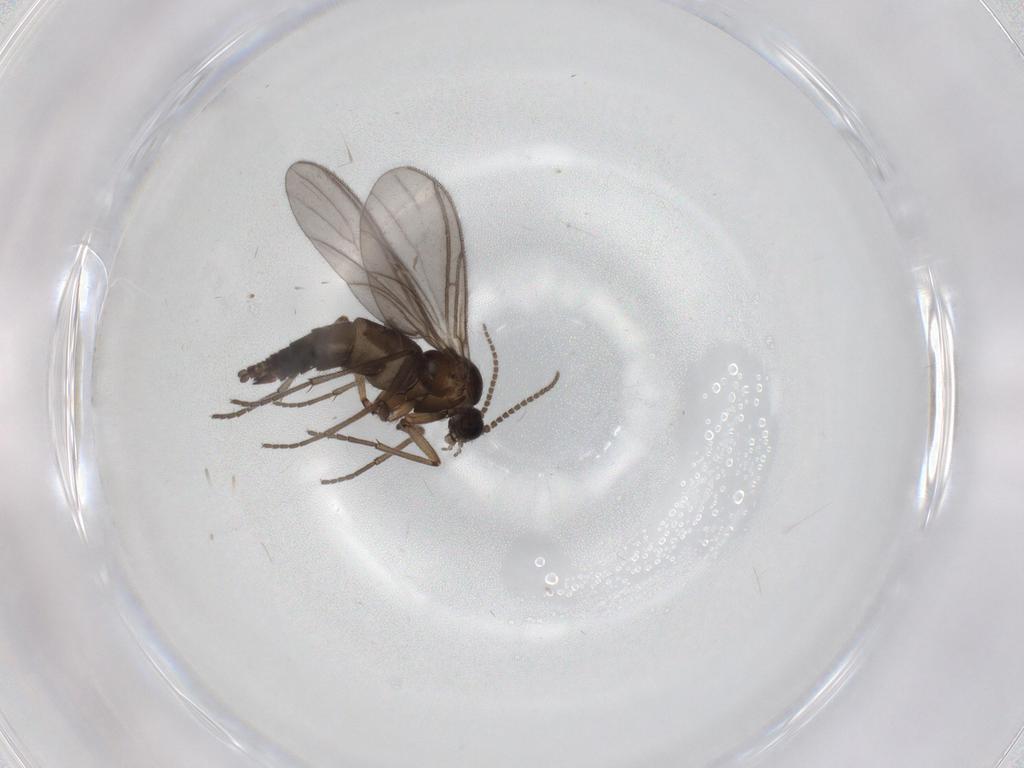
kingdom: Animalia
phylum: Arthropoda
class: Insecta
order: Diptera
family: Sciaridae
